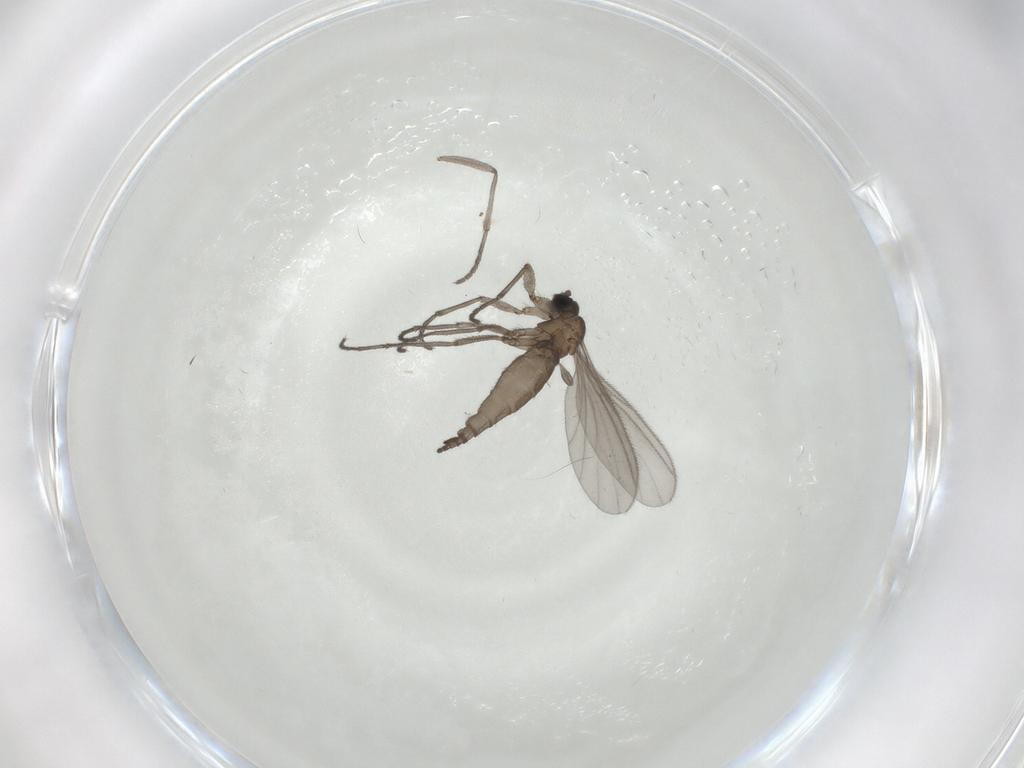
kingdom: Animalia
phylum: Arthropoda
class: Insecta
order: Diptera
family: Sciaridae
